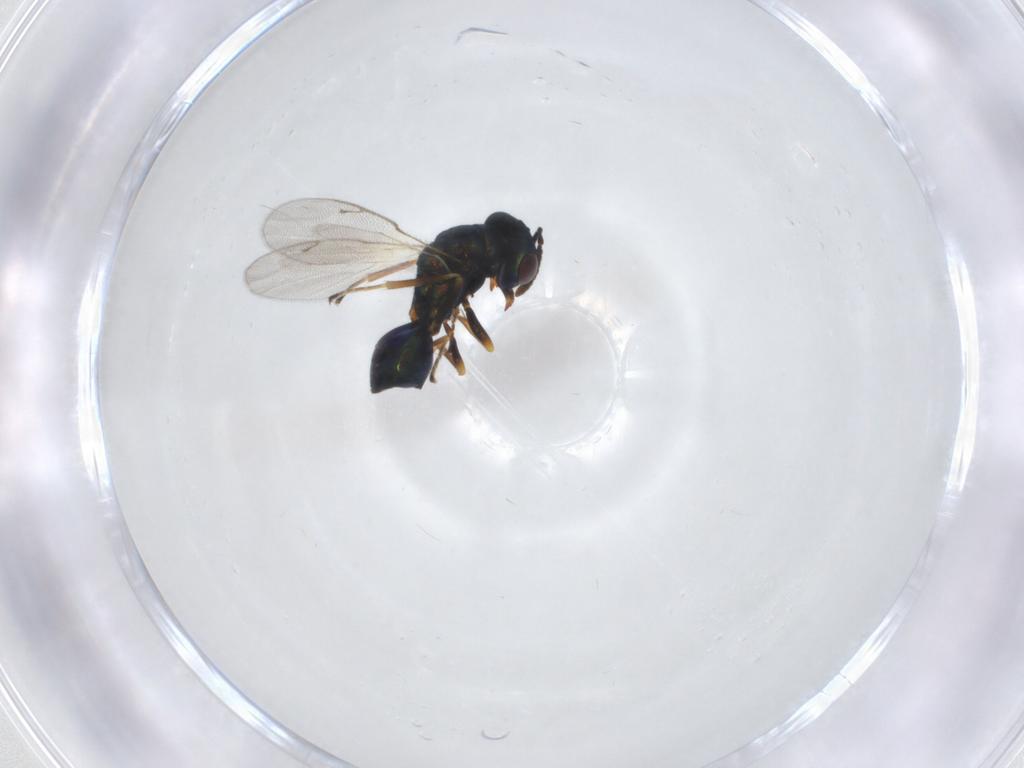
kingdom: Animalia
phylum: Arthropoda
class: Insecta
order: Hymenoptera
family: Pteromalidae
